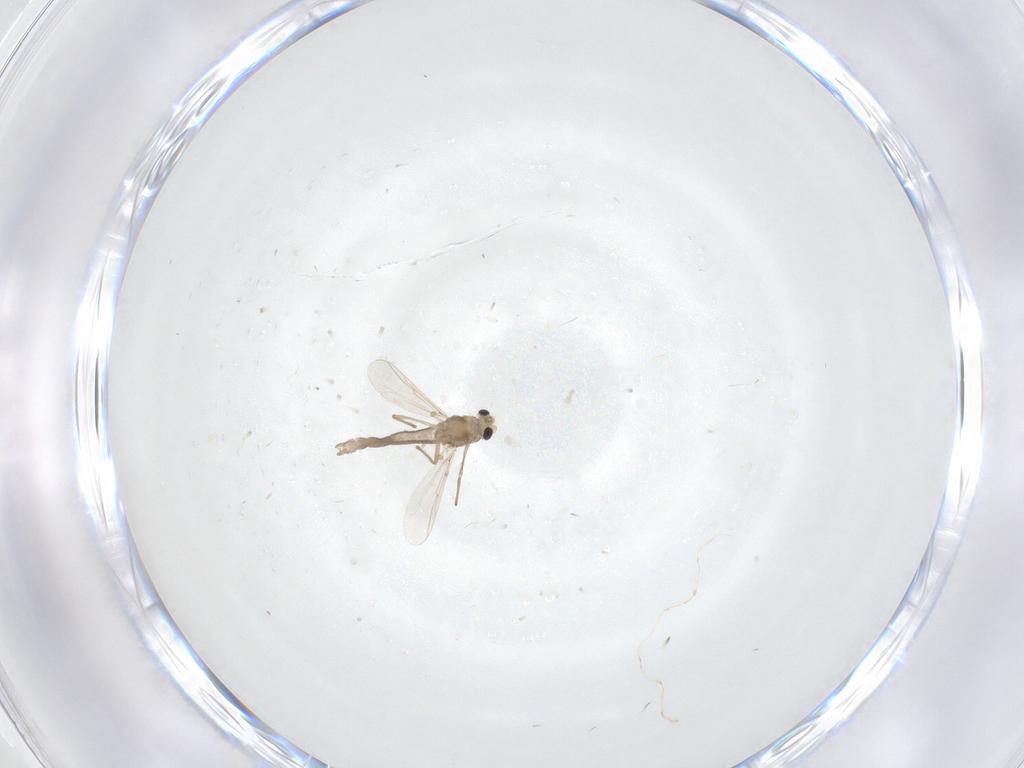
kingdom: Animalia
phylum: Arthropoda
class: Insecta
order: Diptera
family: Chironomidae
